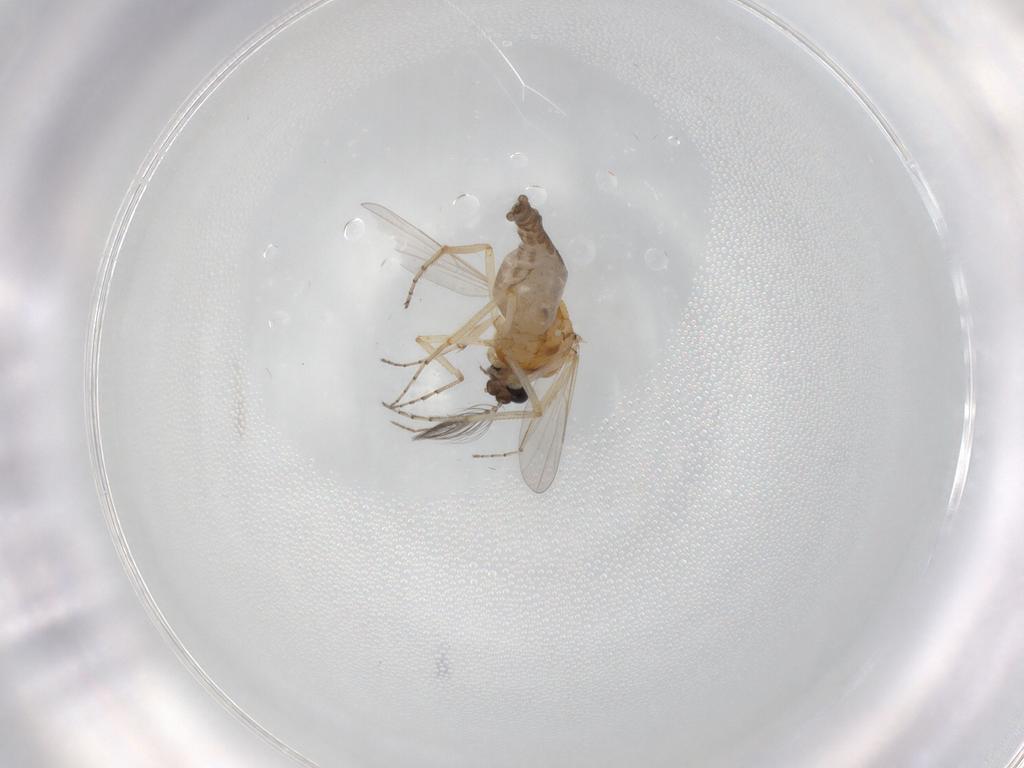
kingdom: Animalia
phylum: Arthropoda
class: Insecta
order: Diptera
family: Ceratopogonidae
